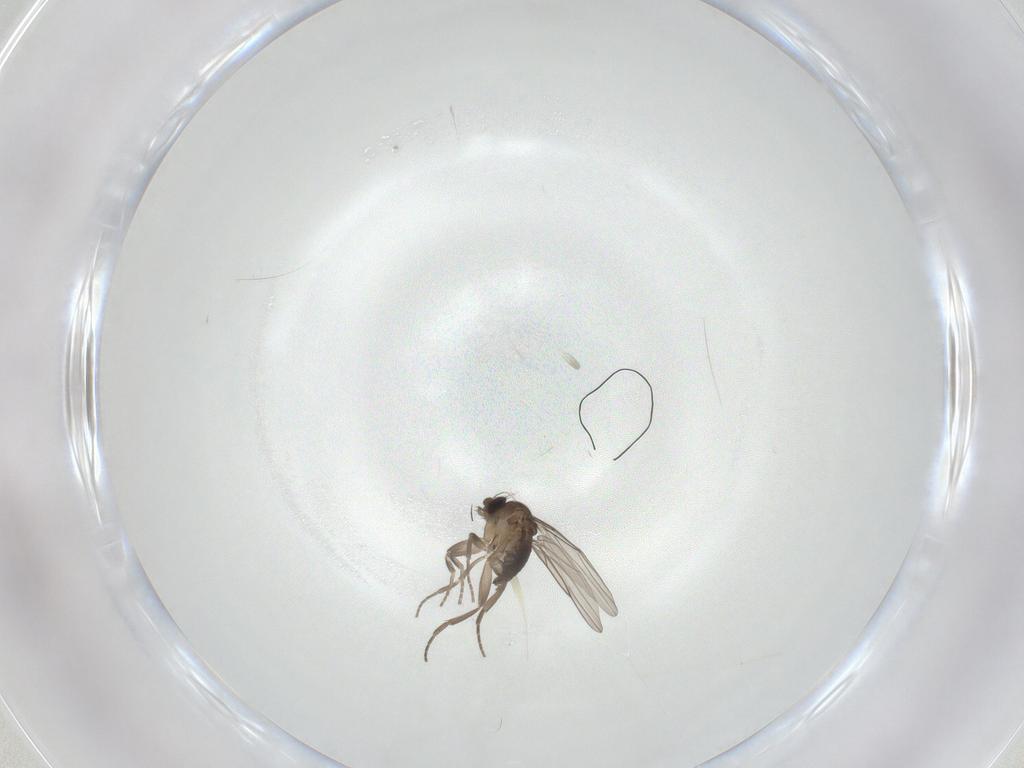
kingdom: Animalia
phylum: Arthropoda
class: Insecta
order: Diptera
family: Phoridae
